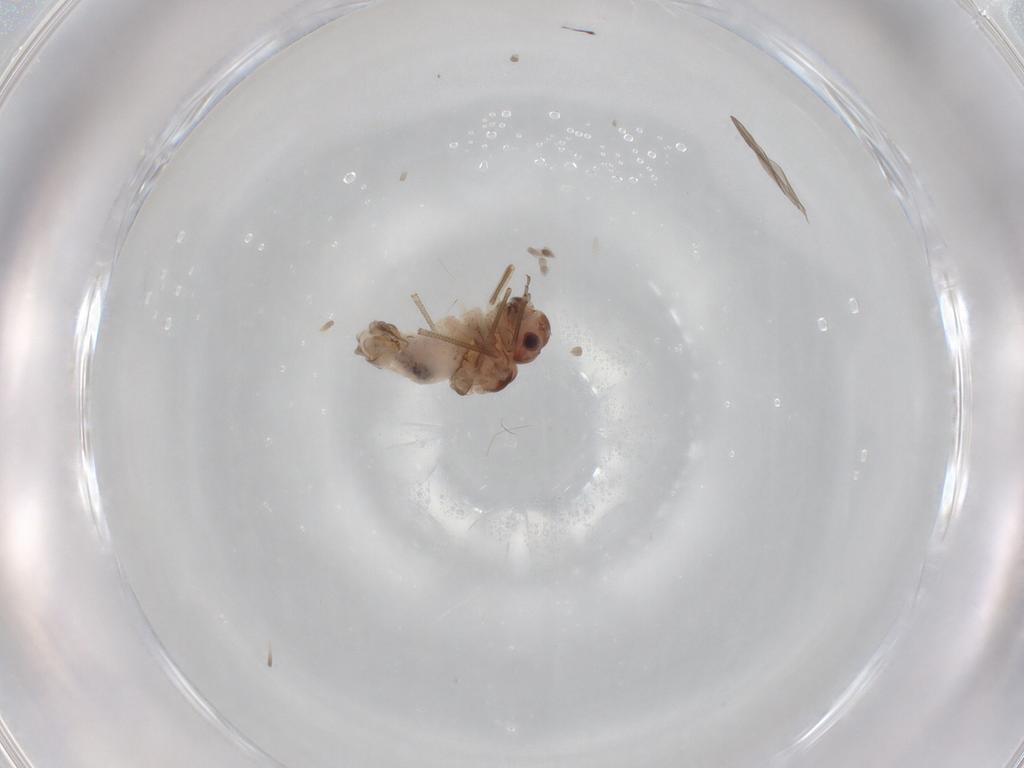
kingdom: Animalia
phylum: Arthropoda
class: Insecta
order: Psocodea
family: Peripsocidae
